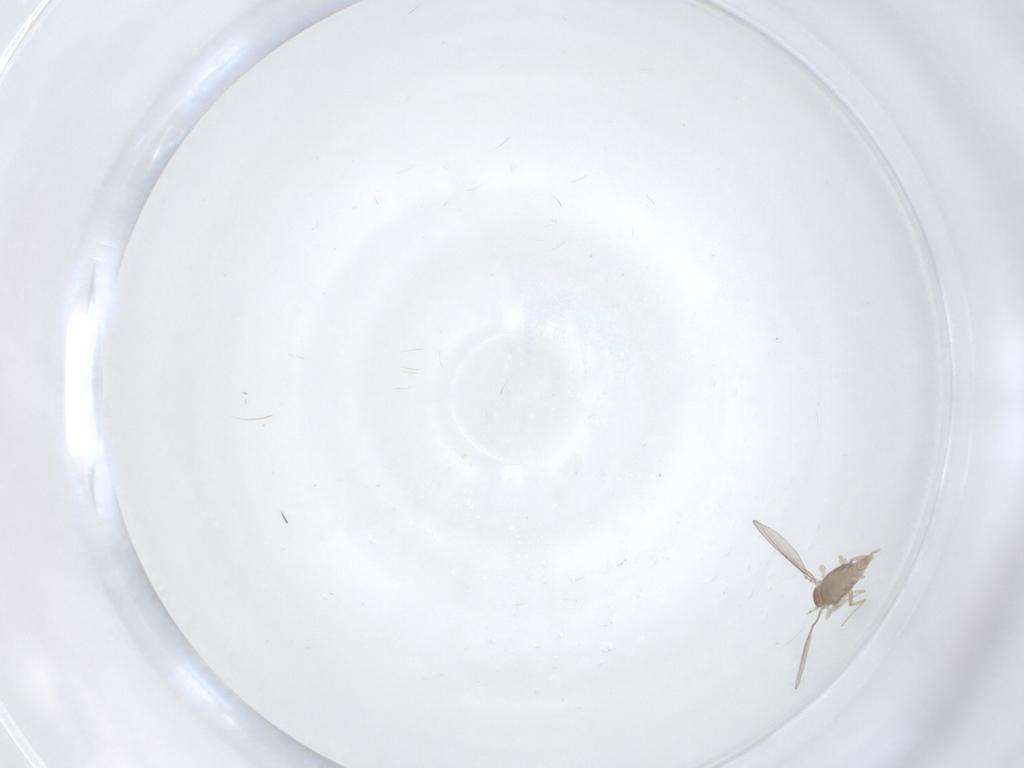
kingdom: Animalia
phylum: Arthropoda
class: Insecta
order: Diptera
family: Cecidomyiidae
